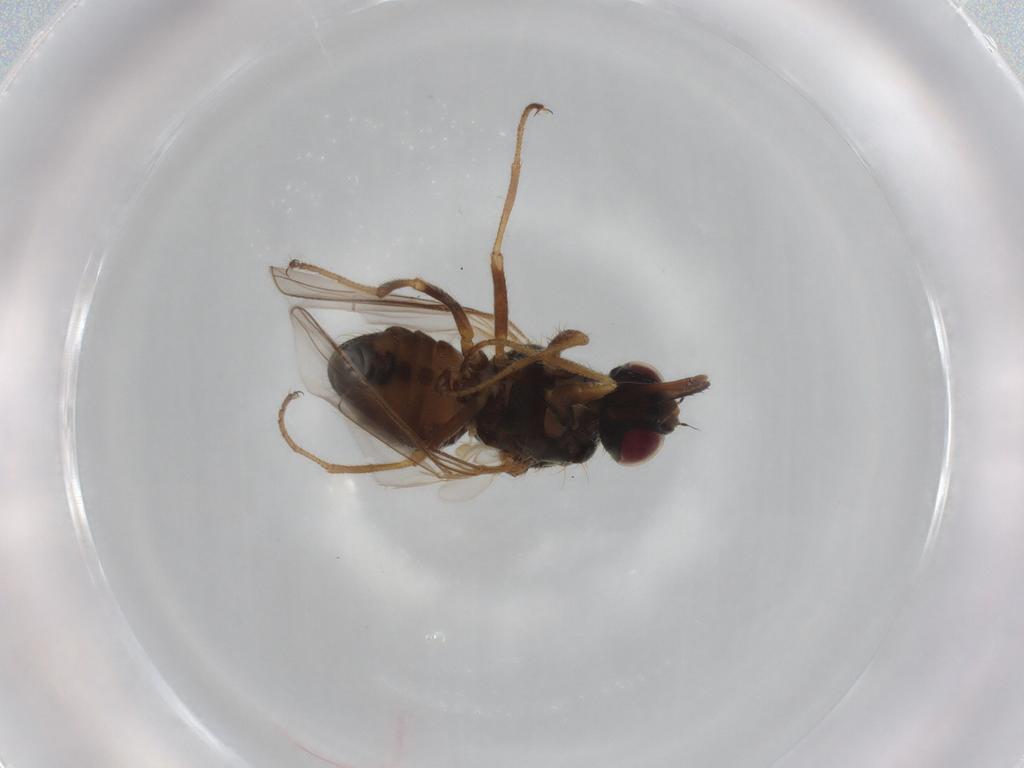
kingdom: Animalia
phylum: Arthropoda
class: Insecta
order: Diptera
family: Muscidae
